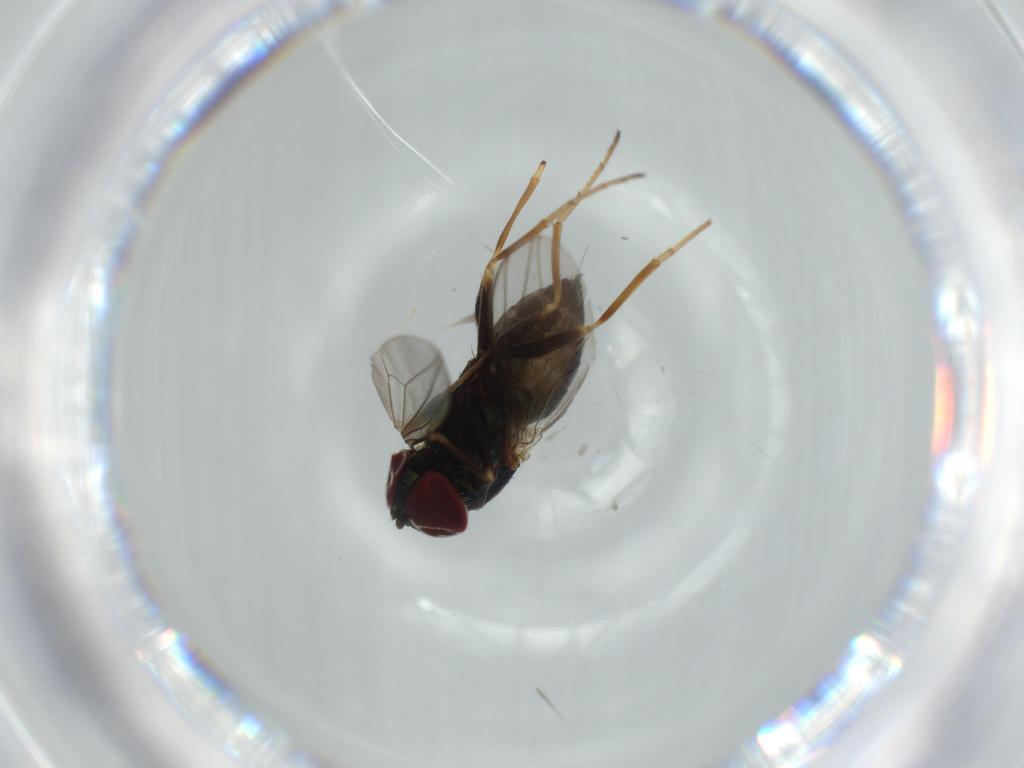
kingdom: Animalia
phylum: Arthropoda
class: Insecta
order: Diptera
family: Dolichopodidae
